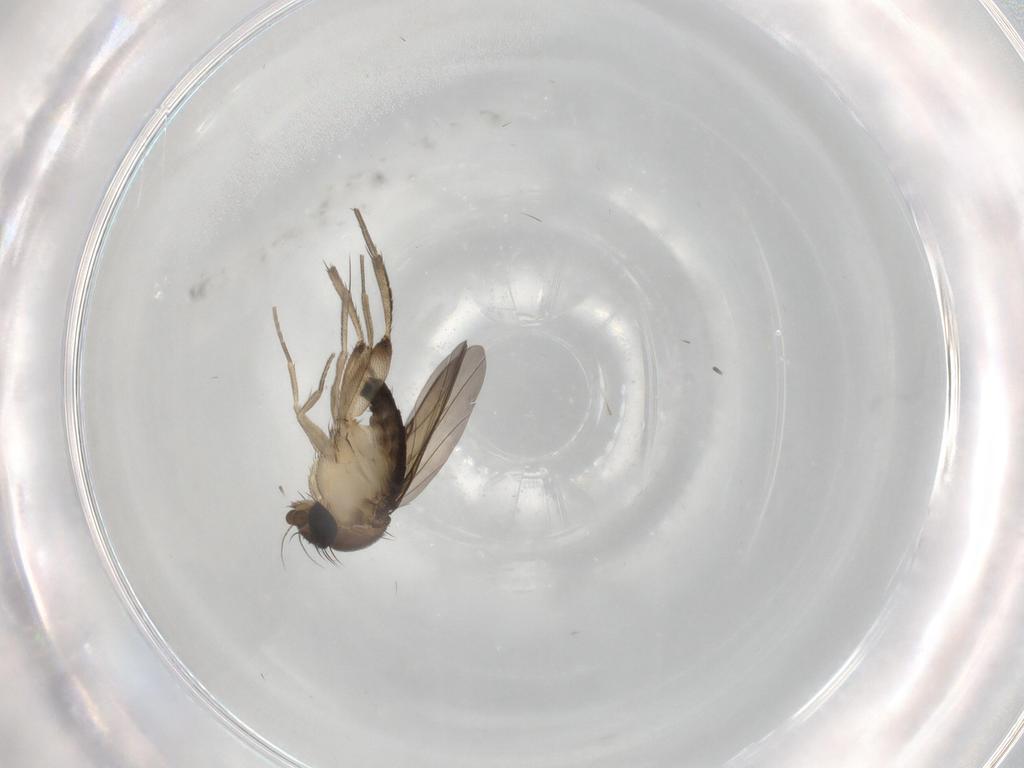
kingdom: Animalia
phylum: Arthropoda
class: Insecta
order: Diptera
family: Phoridae
